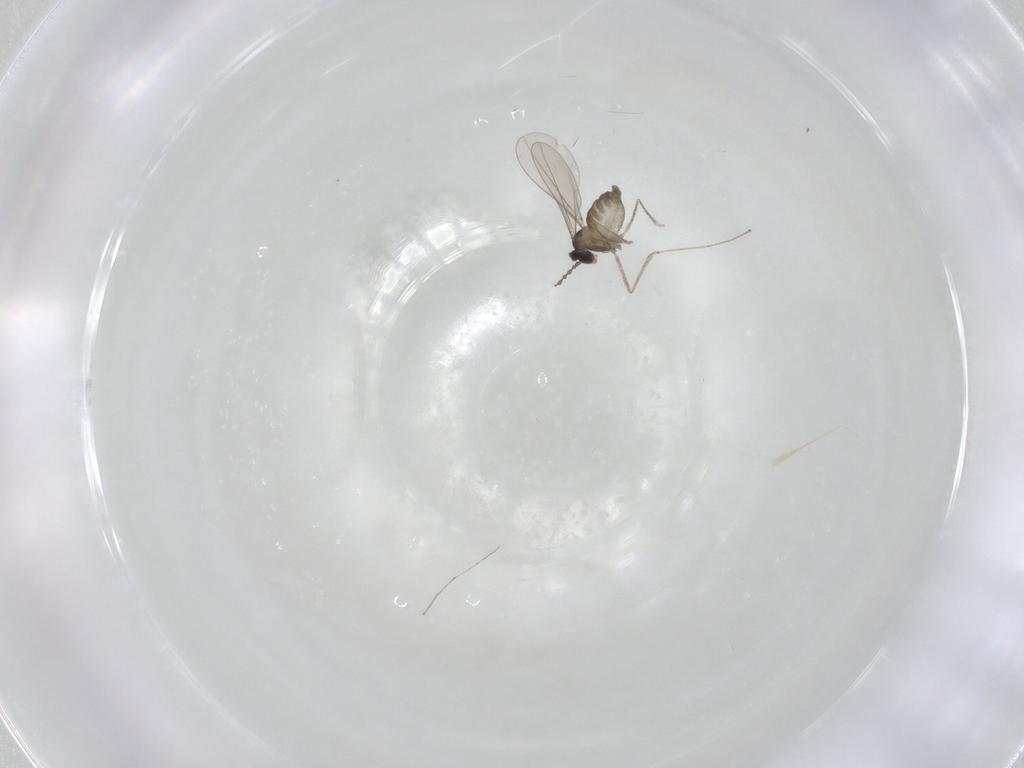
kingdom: Animalia
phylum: Arthropoda
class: Insecta
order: Diptera
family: Cecidomyiidae
